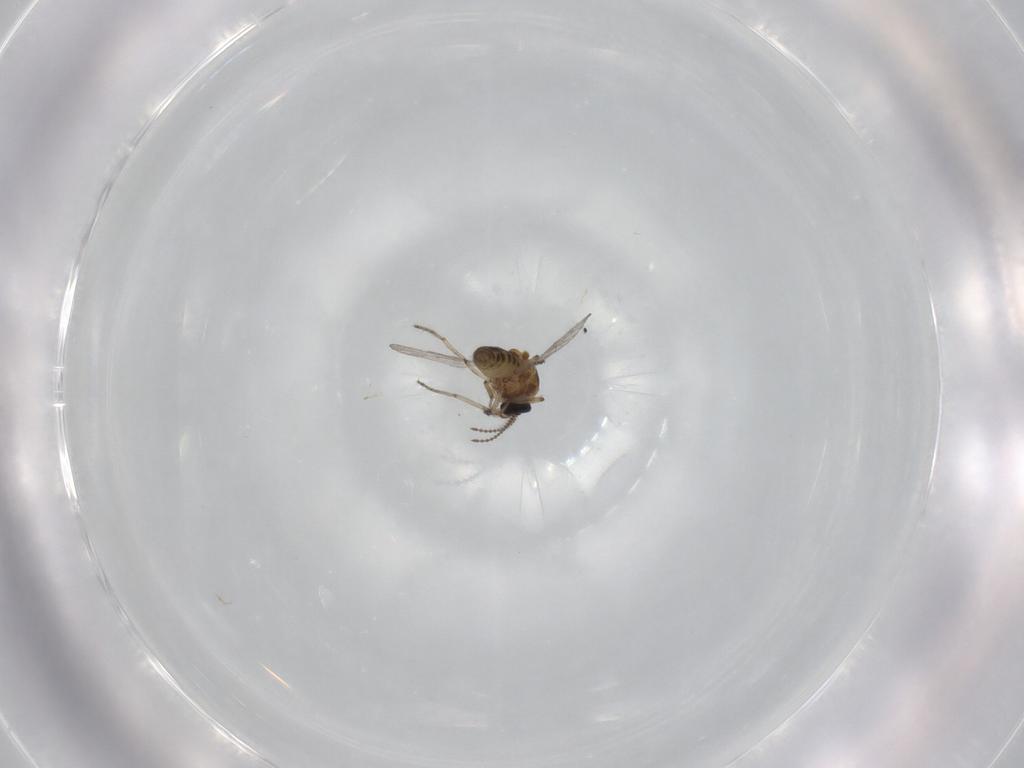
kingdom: Animalia
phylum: Arthropoda
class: Insecta
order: Diptera
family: Ceratopogonidae
